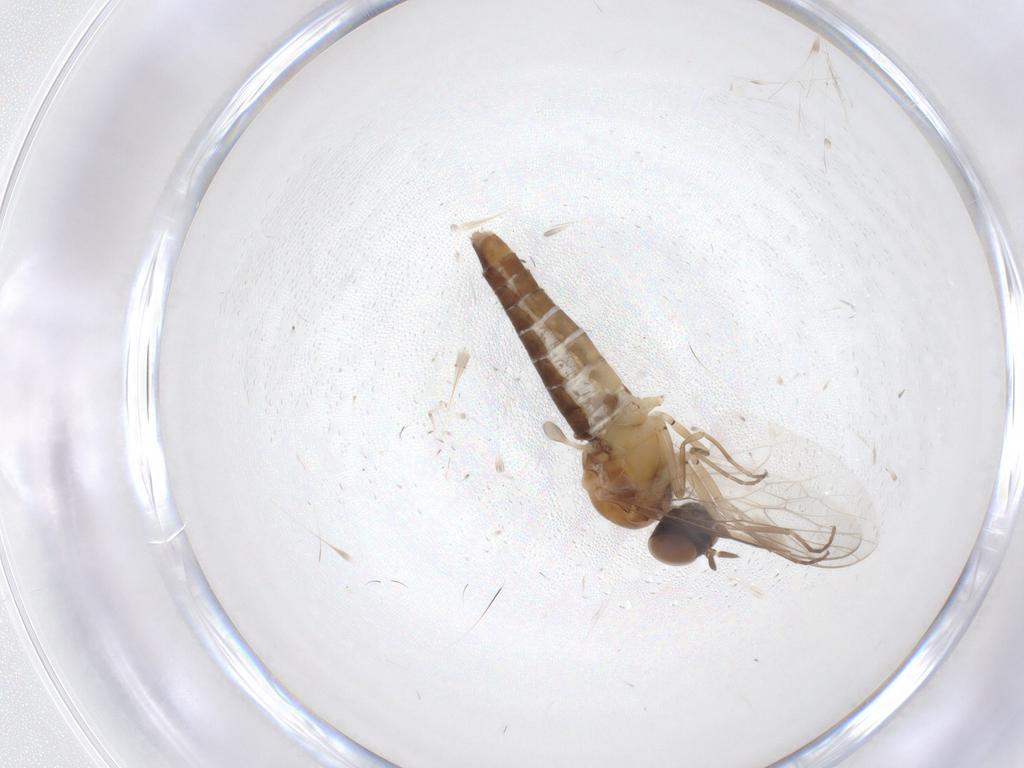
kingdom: Animalia
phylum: Arthropoda
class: Insecta
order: Diptera
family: Scenopinidae
